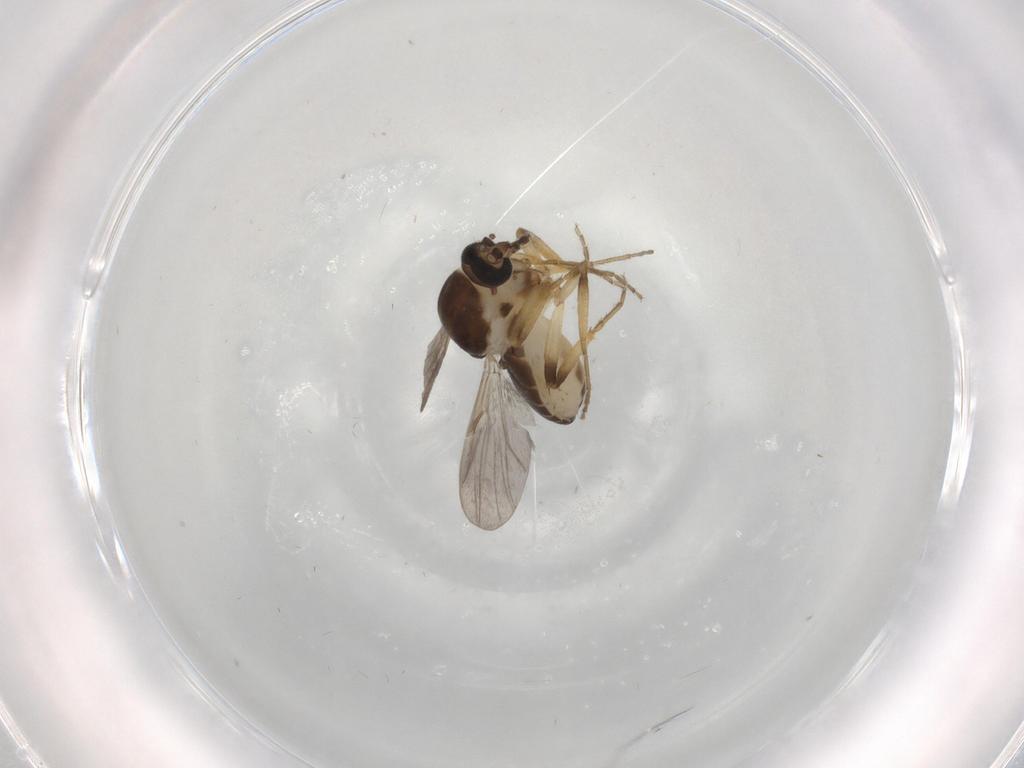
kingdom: Animalia
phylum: Arthropoda
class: Insecta
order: Diptera
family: Ceratopogonidae
